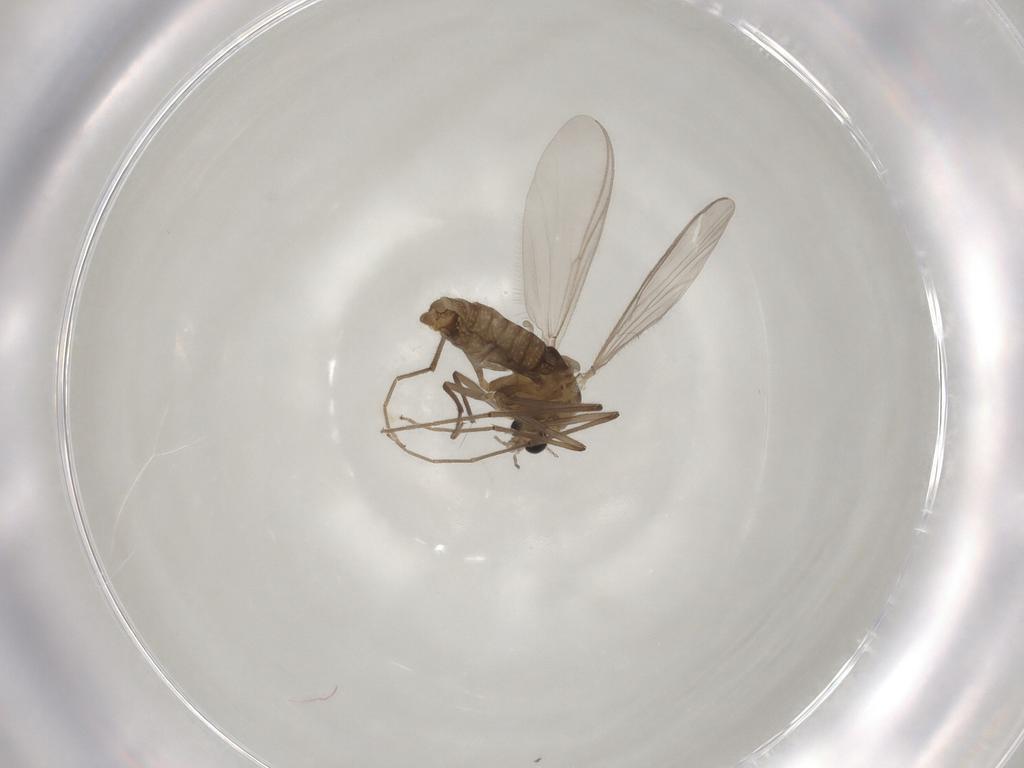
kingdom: Animalia
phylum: Arthropoda
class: Insecta
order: Diptera
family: Chironomidae
